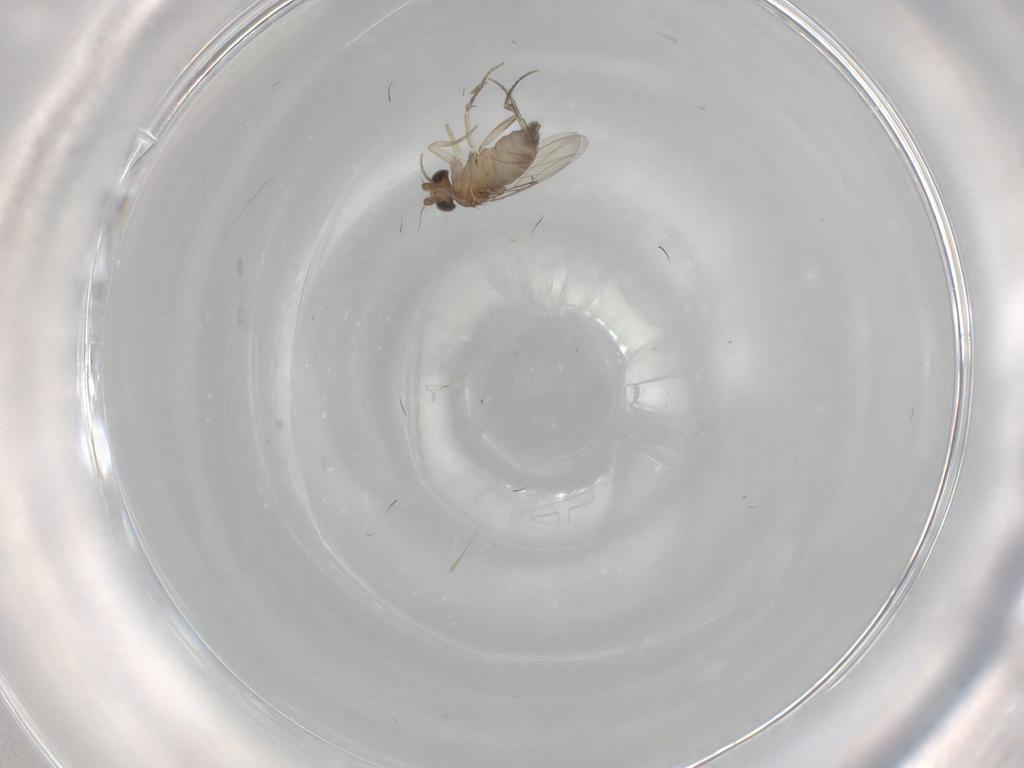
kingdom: Animalia
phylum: Arthropoda
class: Insecta
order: Diptera
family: Phoridae
